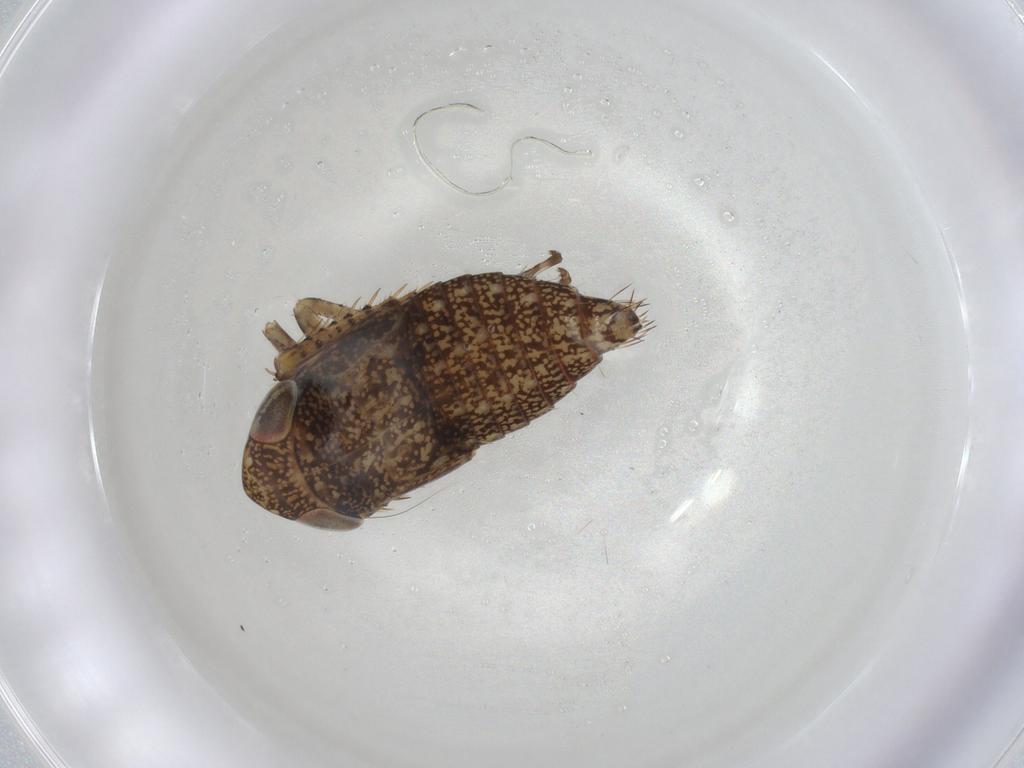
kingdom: Animalia
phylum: Arthropoda
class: Insecta
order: Hemiptera
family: Cicadellidae
